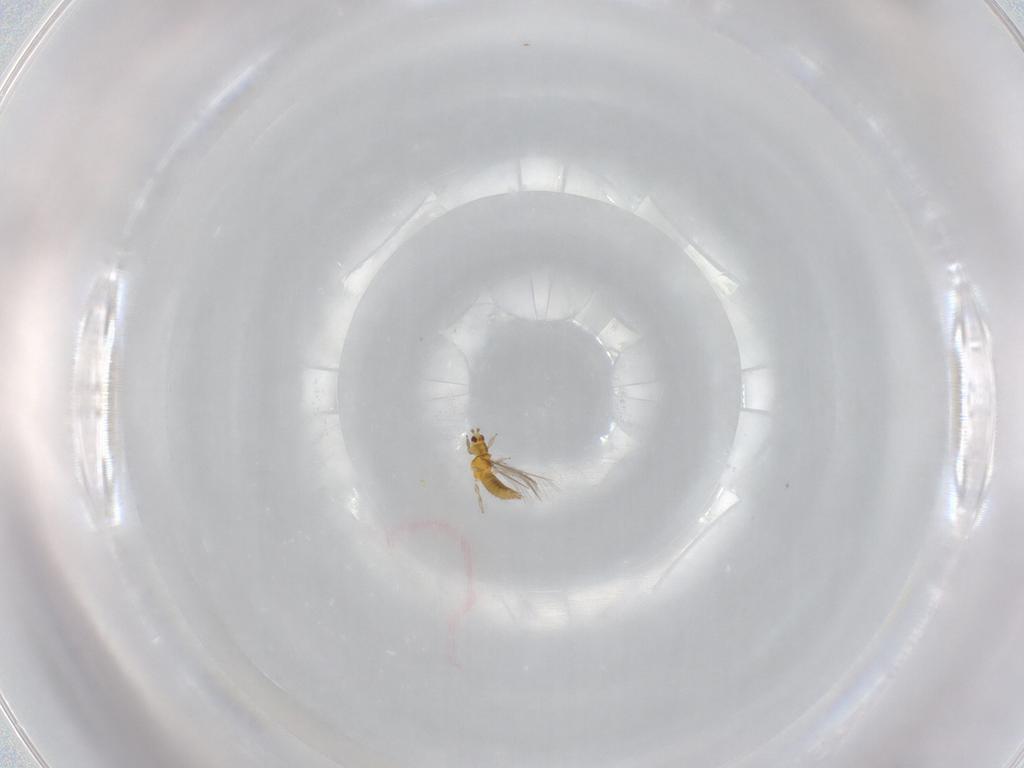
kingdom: Animalia
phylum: Arthropoda
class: Insecta
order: Thysanoptera
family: Thripidae
